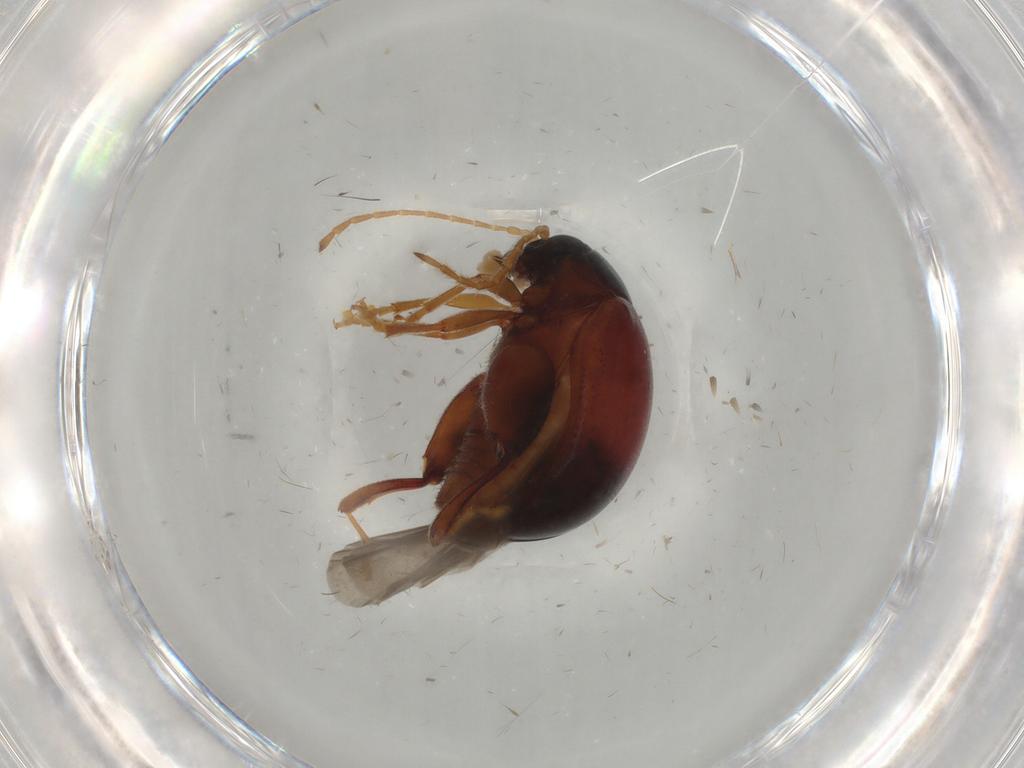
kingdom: Animalia
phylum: Arthropoda
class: Insecta
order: Coleoptera
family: Chrysomelidae
